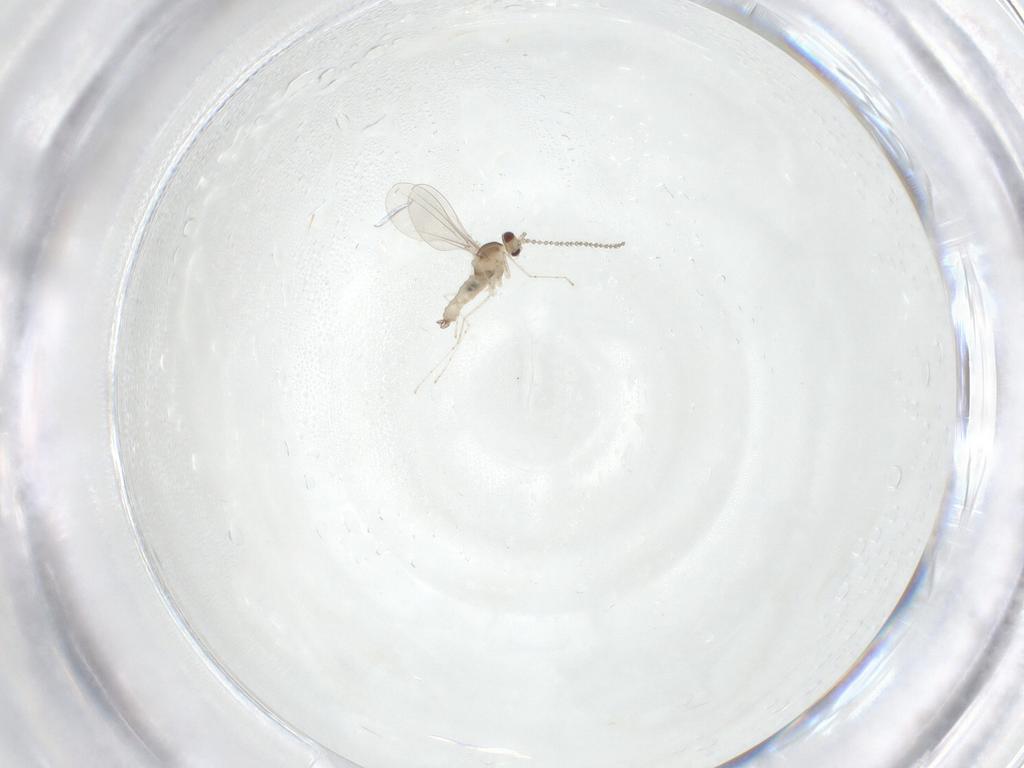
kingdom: Animalia
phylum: Arthropoda
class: Insecta
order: Diptera
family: Cecidomyiidae
